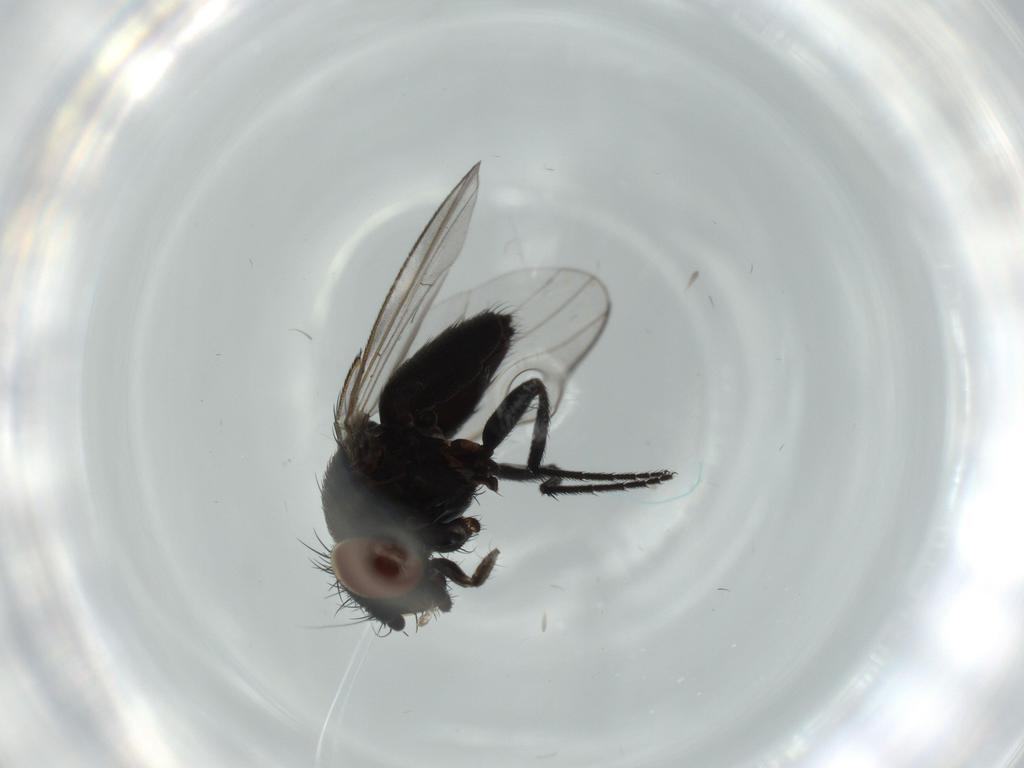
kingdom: Animalia
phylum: Arthropoda
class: Insecta
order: Diptera
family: Milichiidae
